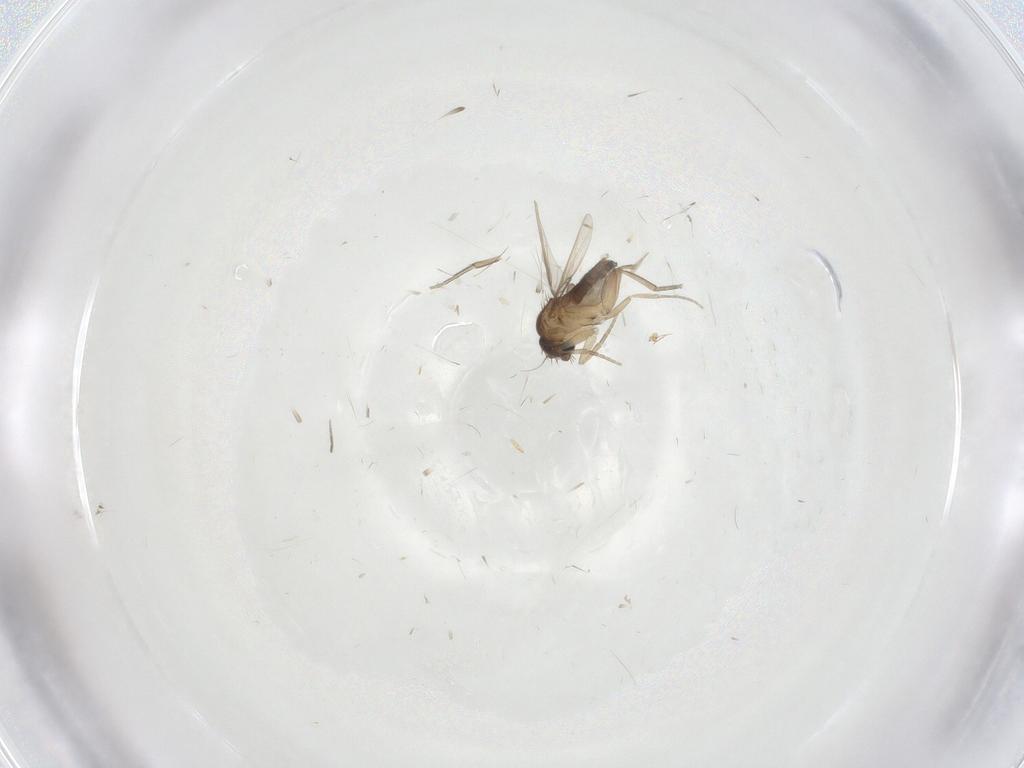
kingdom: Animalia
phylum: Arthropoda
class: Insecta
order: Diptera
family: Phoridae
